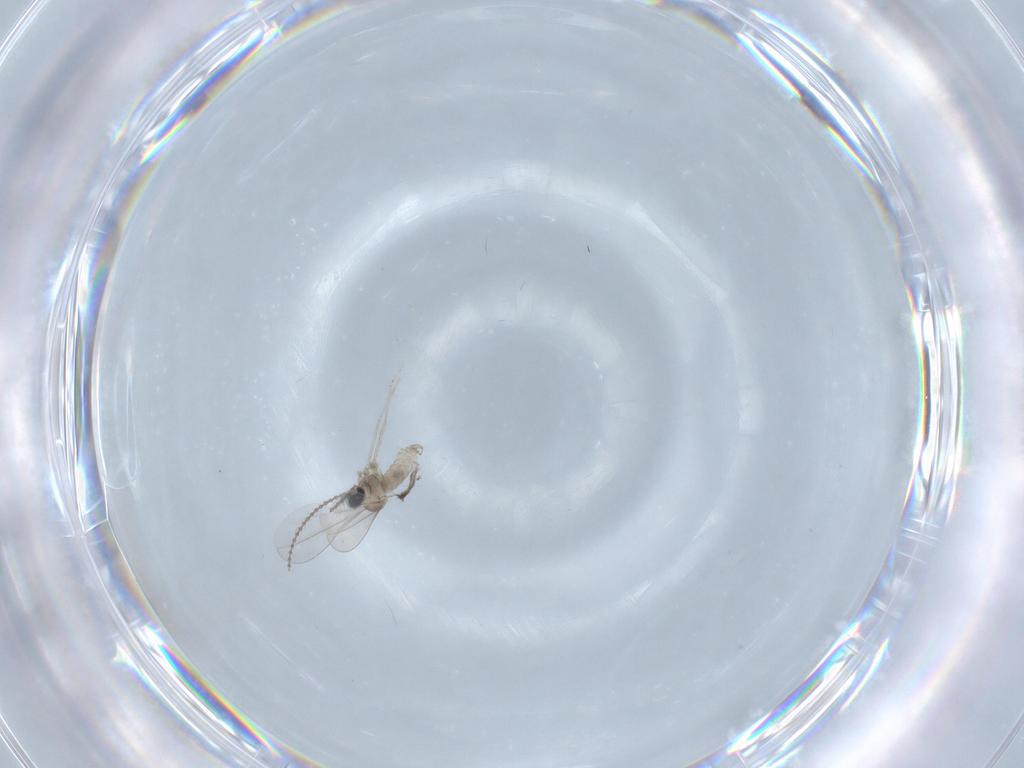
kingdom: Animalia
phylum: Arthropoda
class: Insecta
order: Diptera
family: Cecidomyiidae
